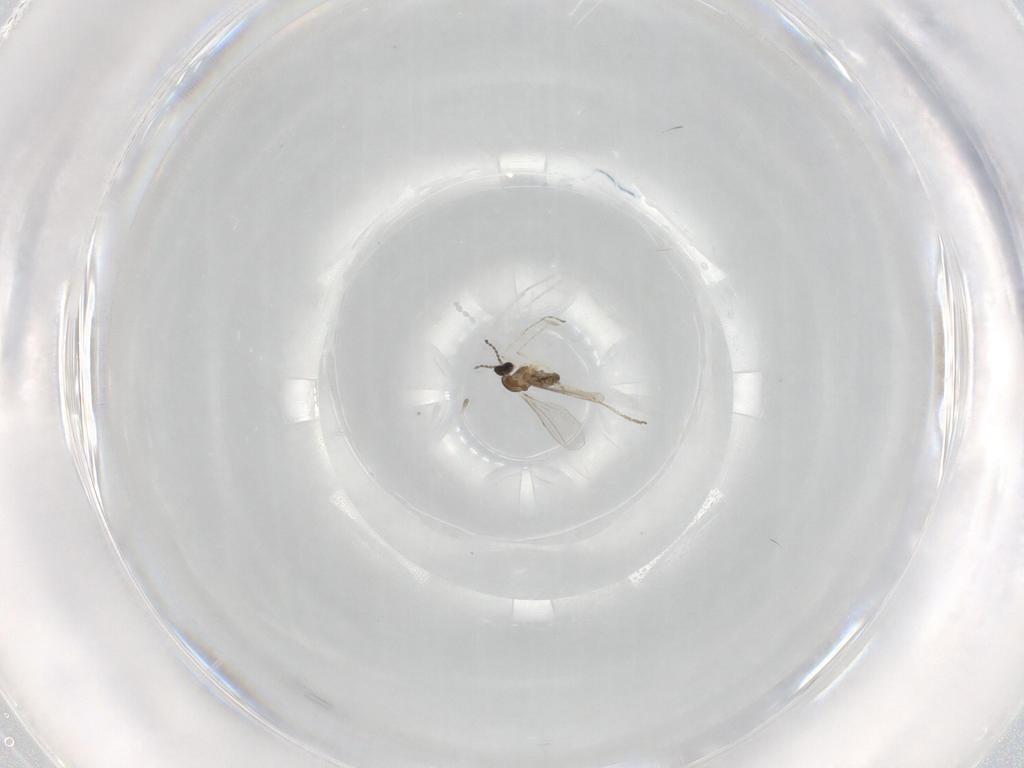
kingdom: Animalia
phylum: Arthropoda
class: Insecta
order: Diptera
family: Cecidomyiidae
